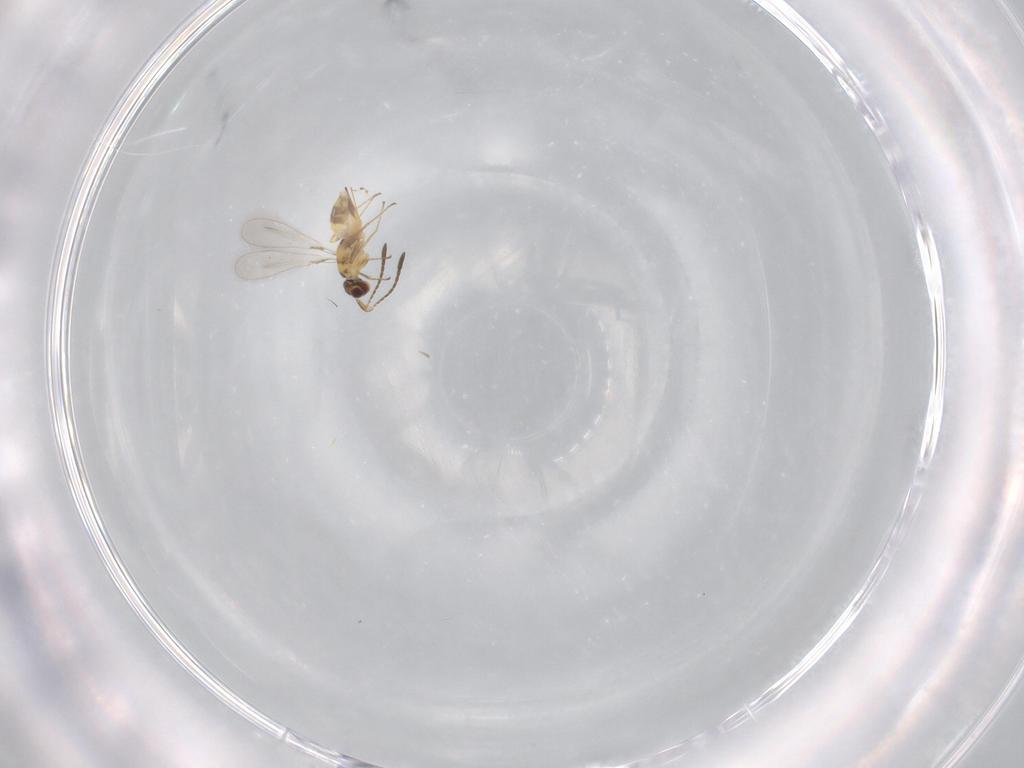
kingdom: Animalia
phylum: Arthropoda
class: Insecta
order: Hymenoptera
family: Mymaridae
